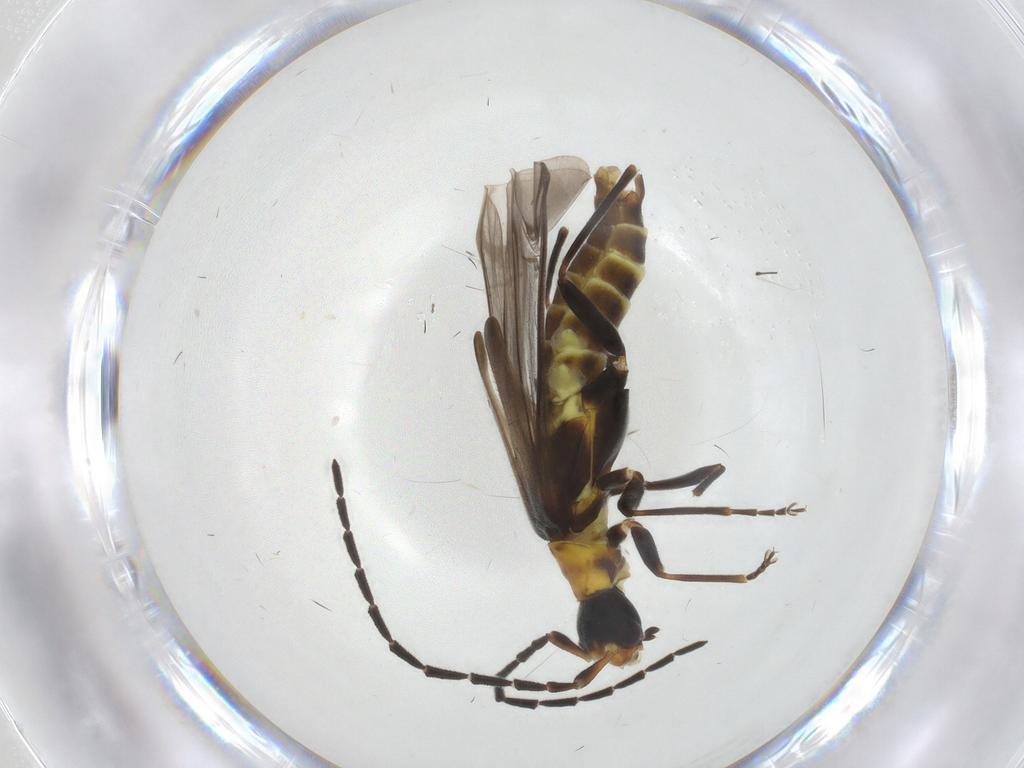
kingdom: Animalia
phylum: Arthropoda
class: Insecta
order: Coleoptera
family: Cantharidae
